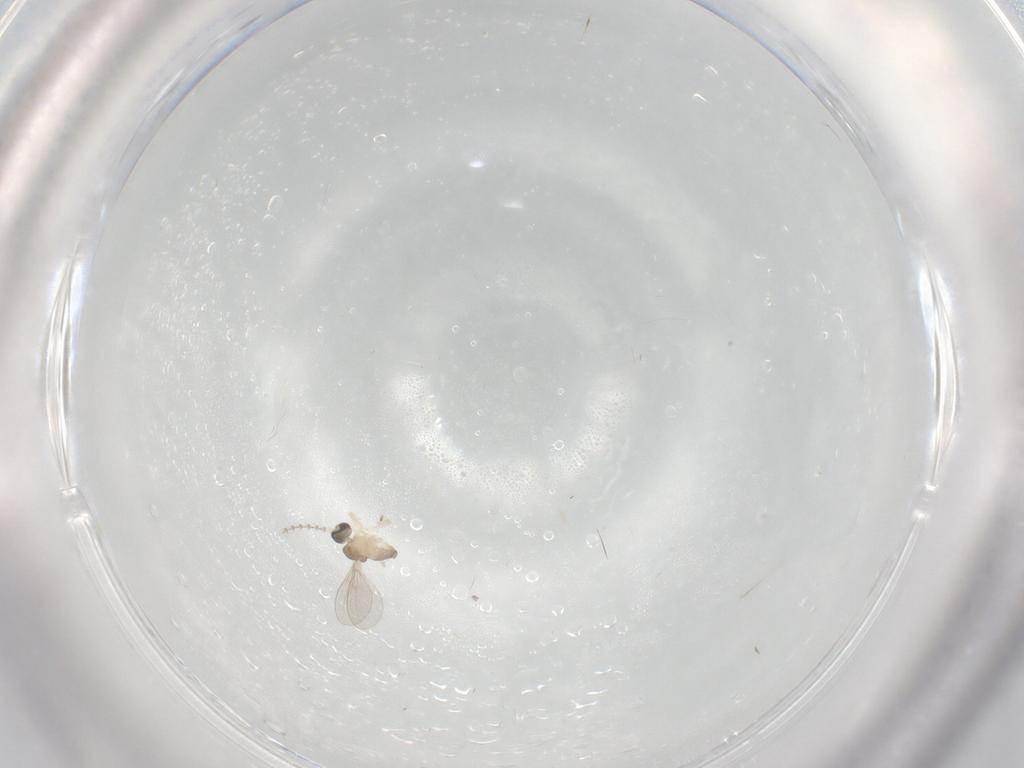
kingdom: Animalia
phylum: Arthropoda
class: Insecta
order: Diptera
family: Cecidomyiidae
